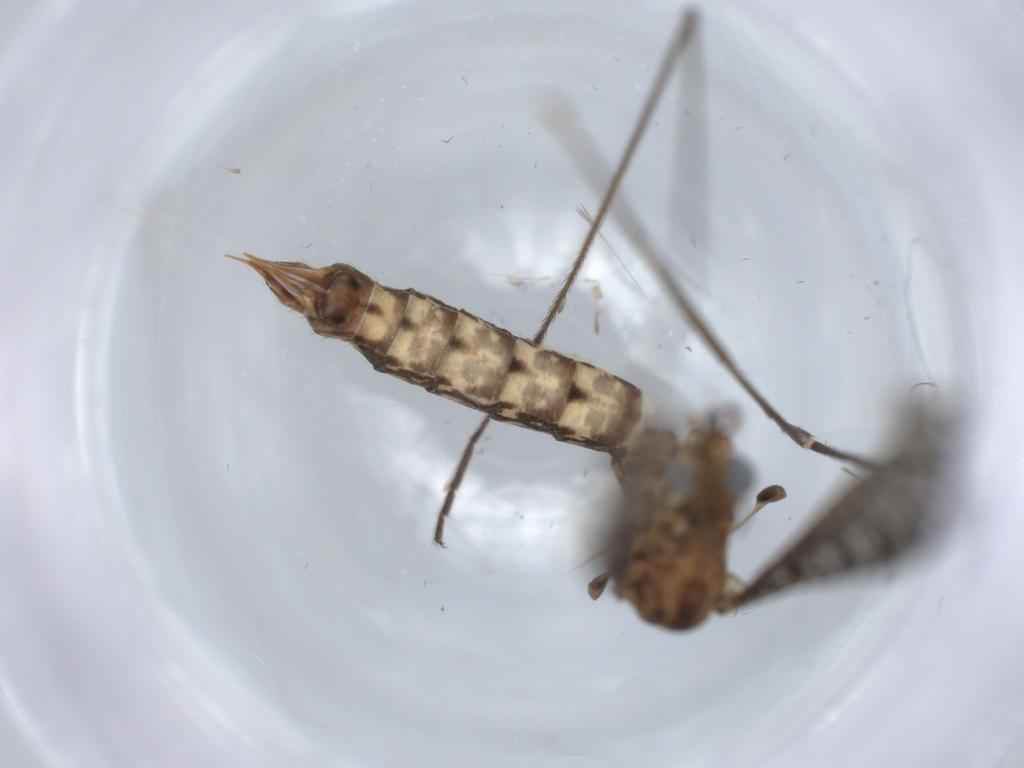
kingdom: Animalia
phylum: Arthropoda
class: Insecta
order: Diptera
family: Limoniidae
